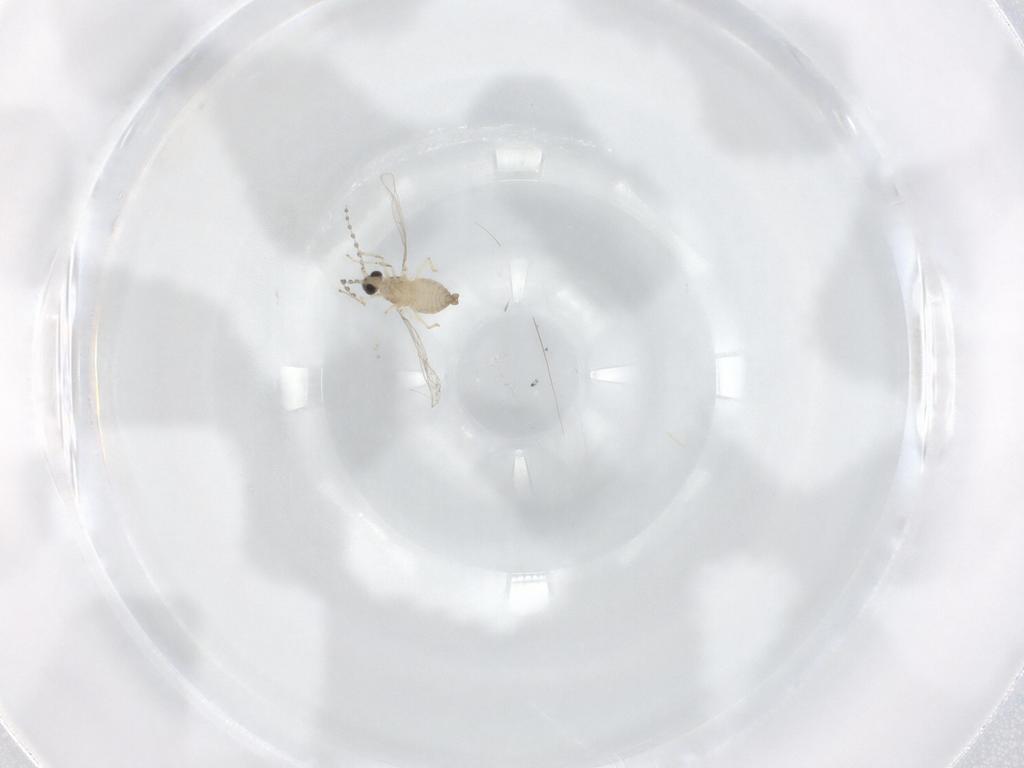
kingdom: Animalia
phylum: Arthropoda
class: Insecta
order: Diptera
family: Cecidomyiidae
